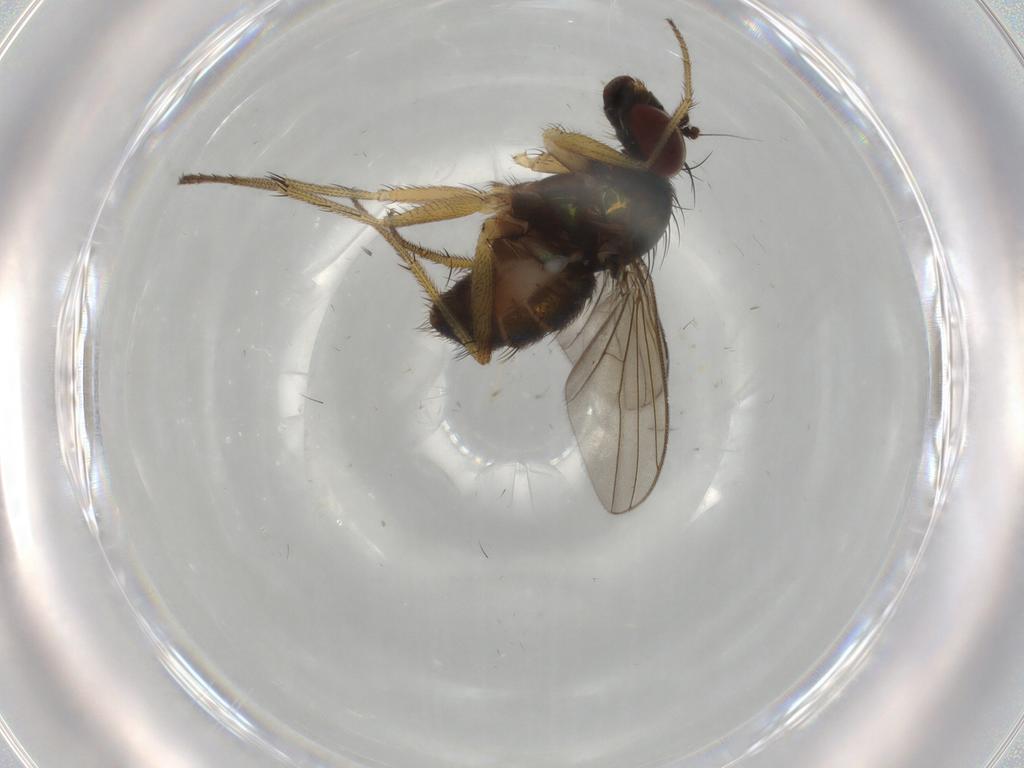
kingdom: Animalia
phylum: Arthropoda
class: Insecta
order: Diptera
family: Dolichopodidae
